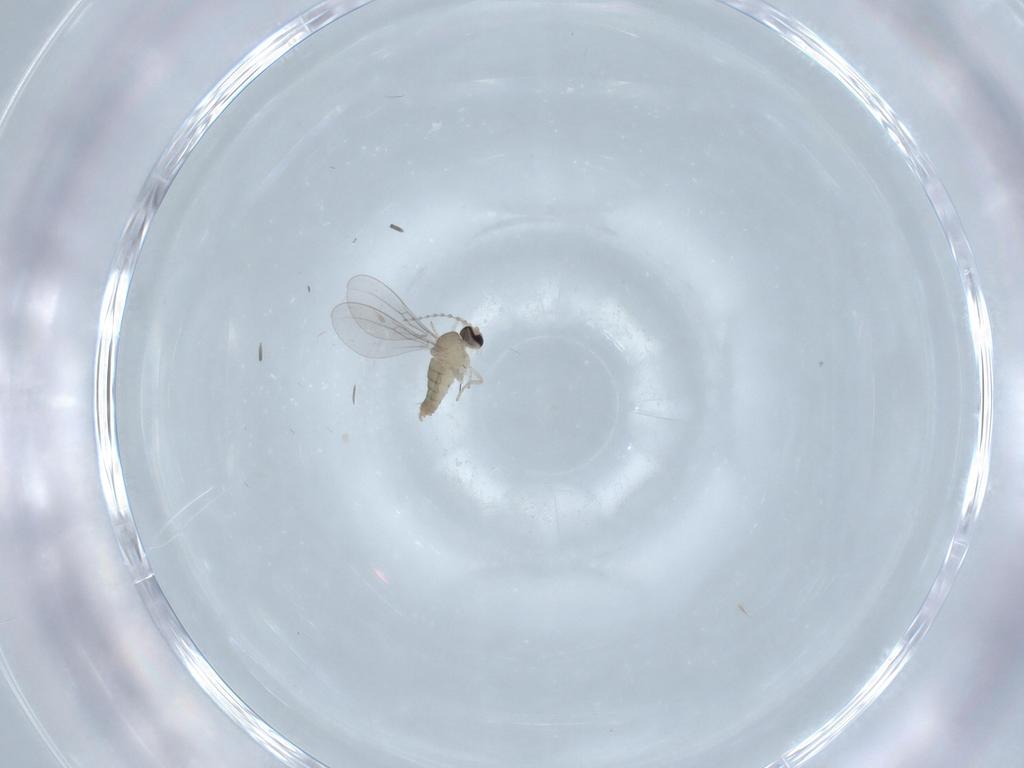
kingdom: Animalia
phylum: Arthropoda
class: Insecta
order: Diptera
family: Cecidomyiidae
